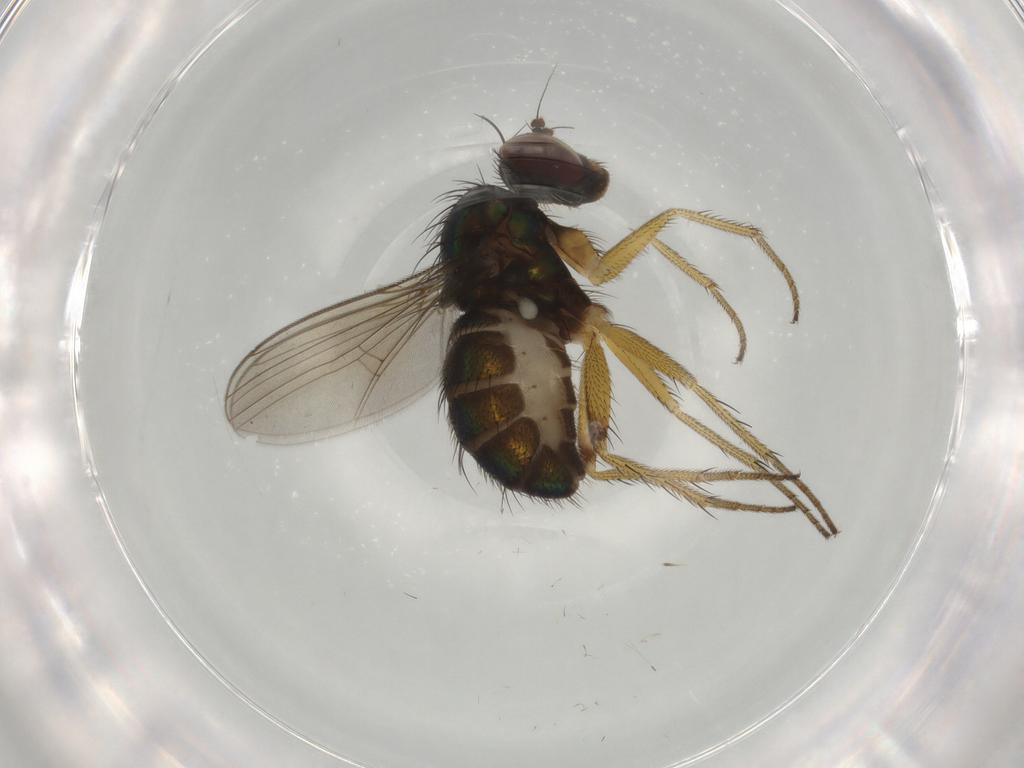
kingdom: Animalia
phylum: Arthropoda
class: Insecta
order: Diptera
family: Dolichopodidae
